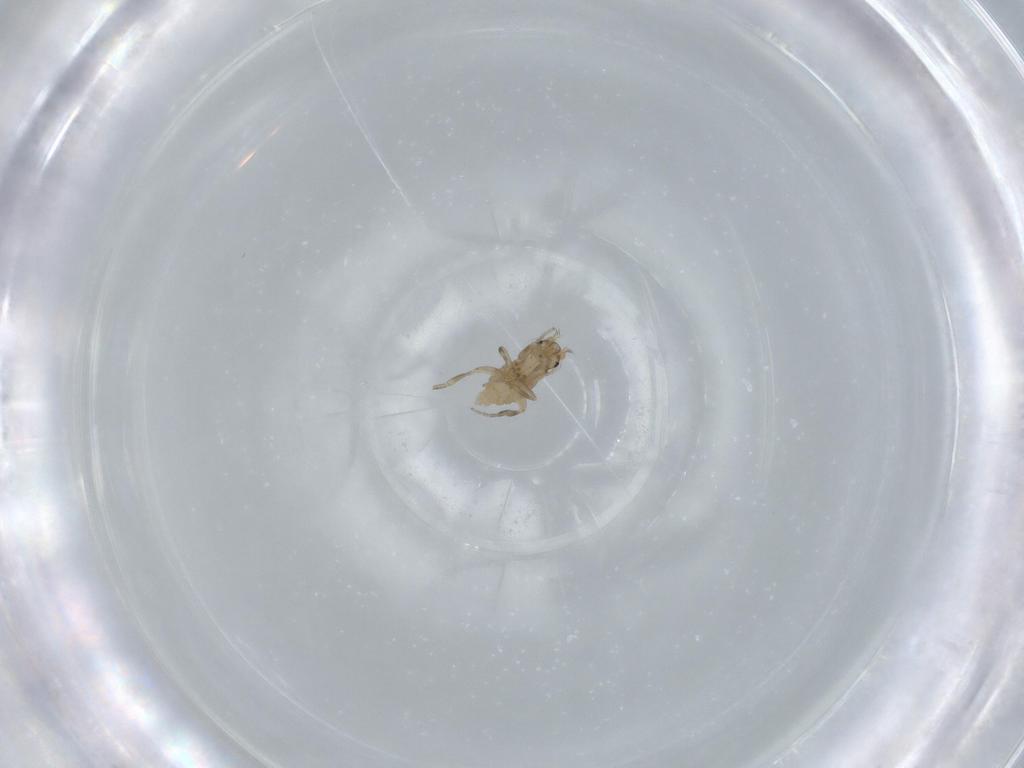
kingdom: Animalia
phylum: Arthropoda
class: Insecta
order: Diptera
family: Phoridae
